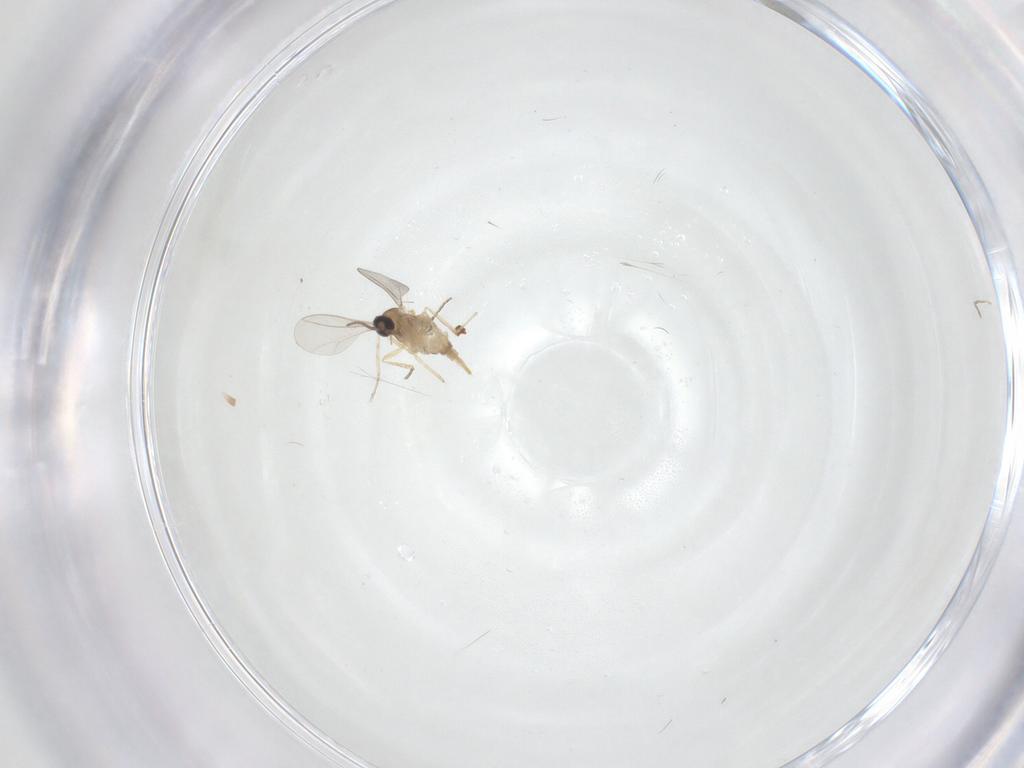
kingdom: Animalia
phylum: Arthropoda
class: Insecta
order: Diptera
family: Cecidomyiidae
